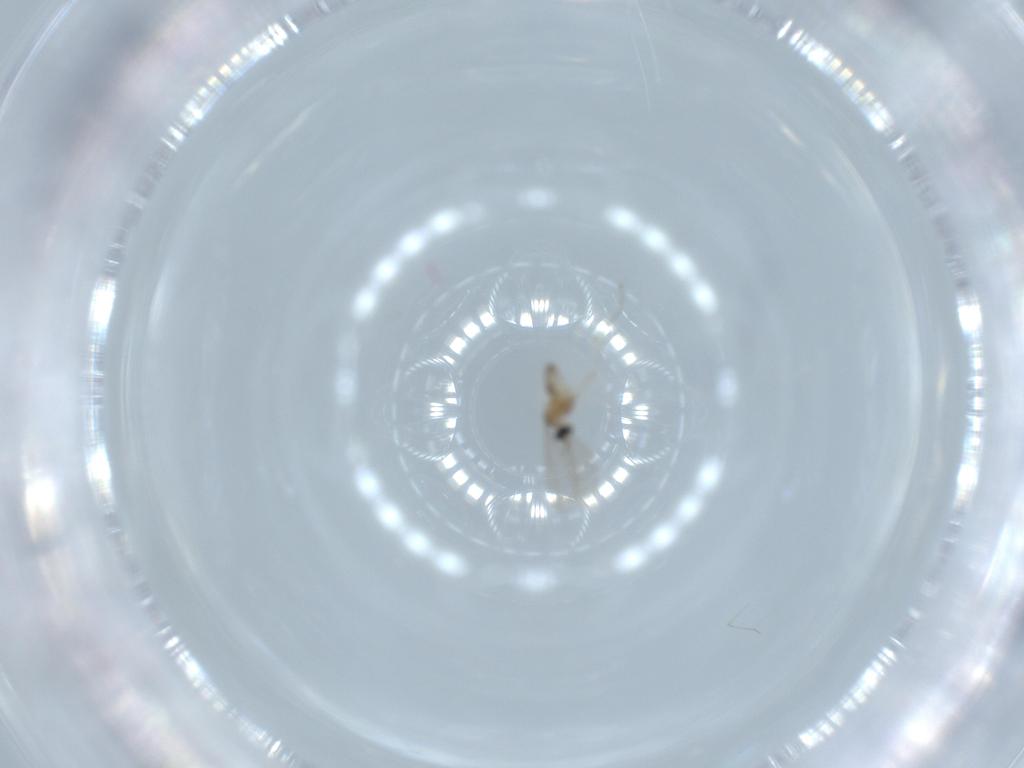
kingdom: Animalia
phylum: Arthropoda
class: Insecta
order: Diptera
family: Cecidomyiidae
